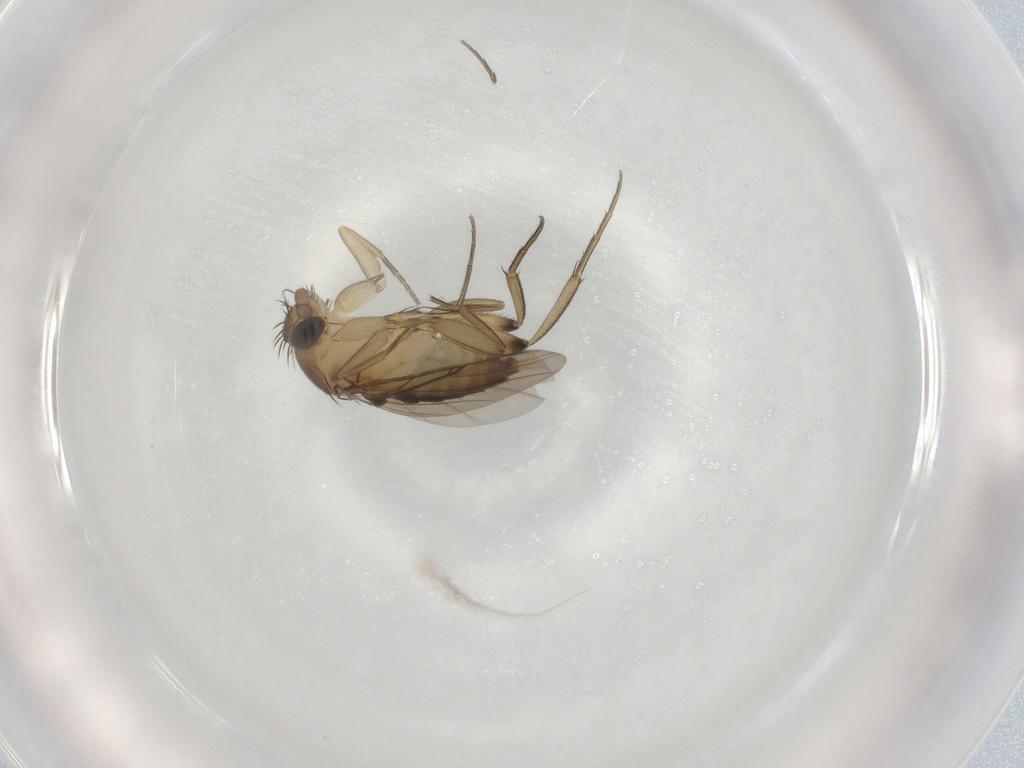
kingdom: Animalia
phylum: Arthropoda
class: Insecta
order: Diptera
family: Phoridae
